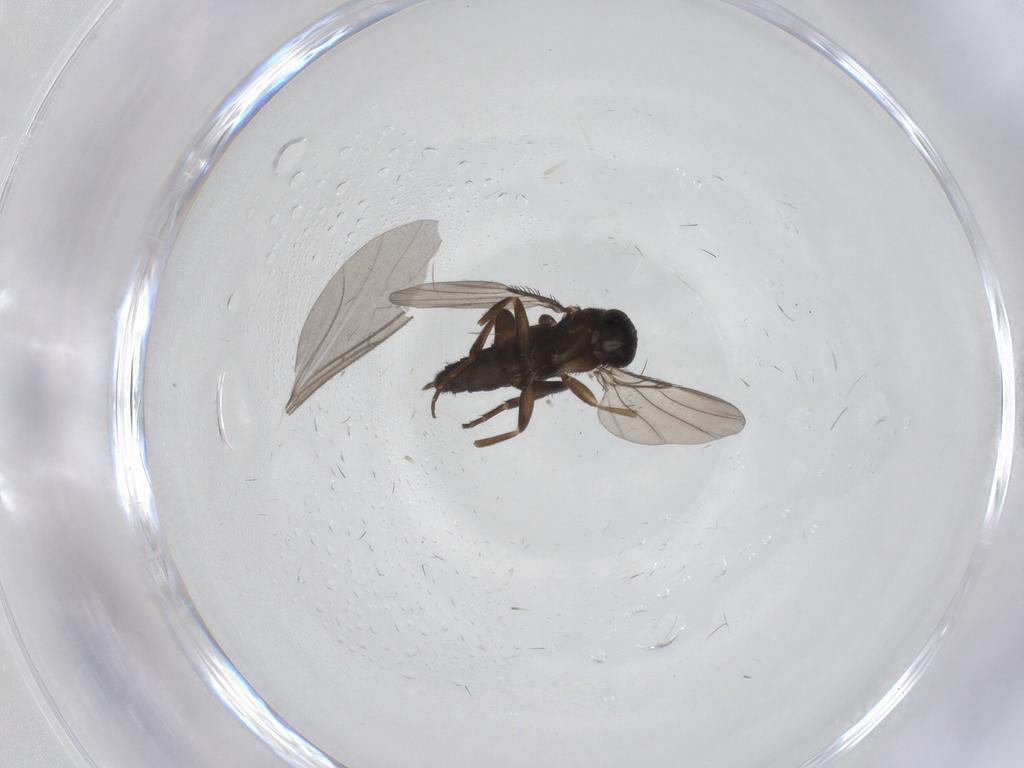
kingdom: Animalia
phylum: Arthropoda
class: Insecta
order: Diptera
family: Phoridae
